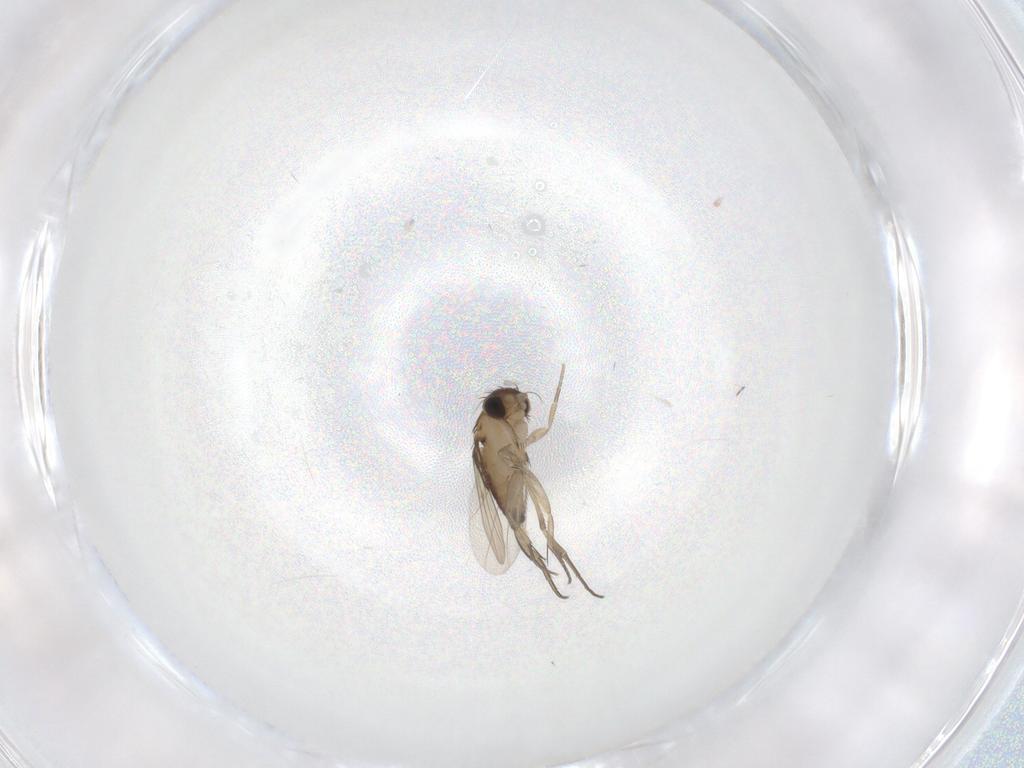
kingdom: Animalia
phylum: Arthropoda
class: Insecta
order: Diptera
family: Phoridae
